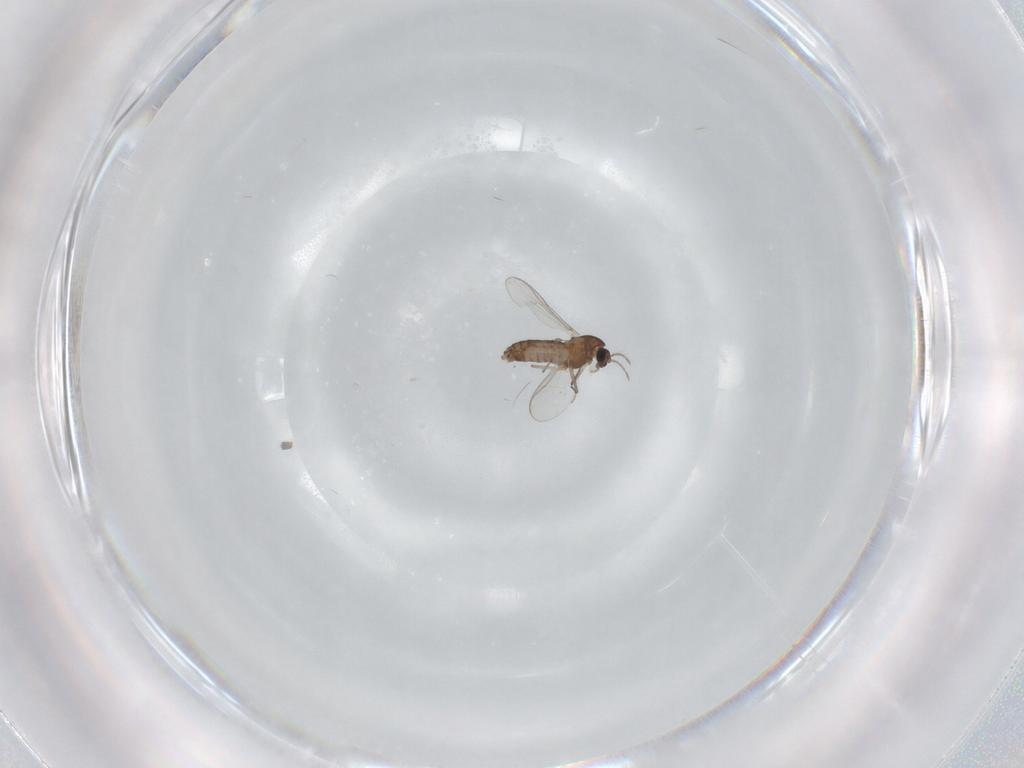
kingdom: Animalia
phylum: Arthropoda
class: Insecta
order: Diptera
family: Chironomidae
